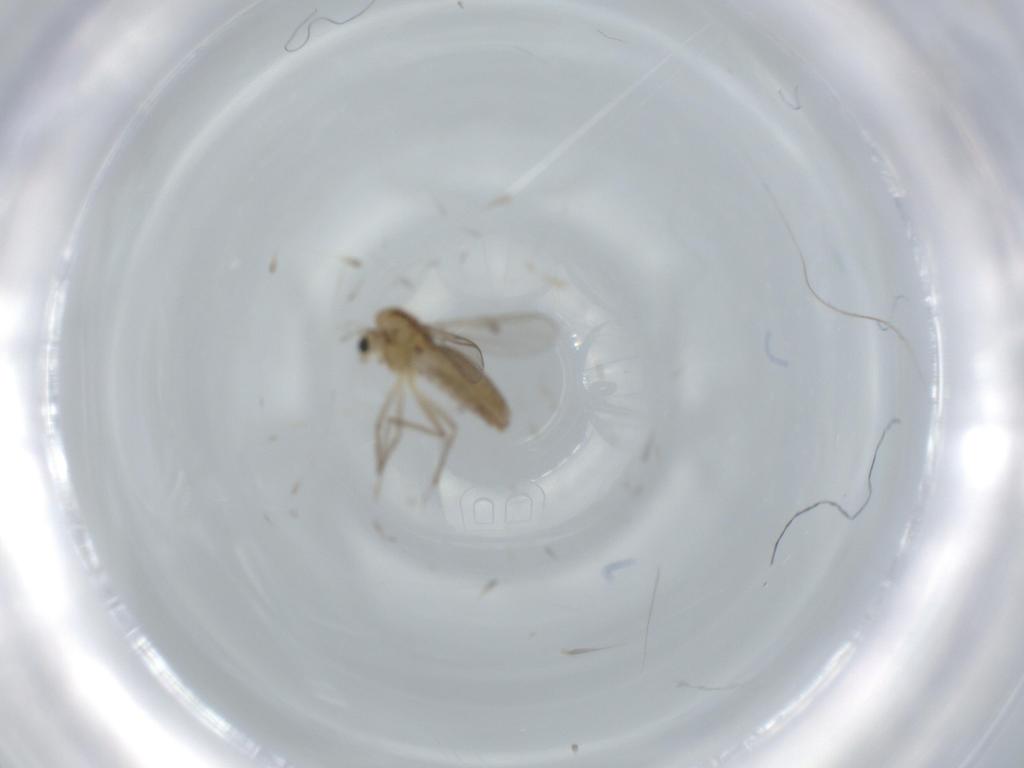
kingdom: Animalia
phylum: Arthropoda
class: Insecta
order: Diptera
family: Chironomidae
